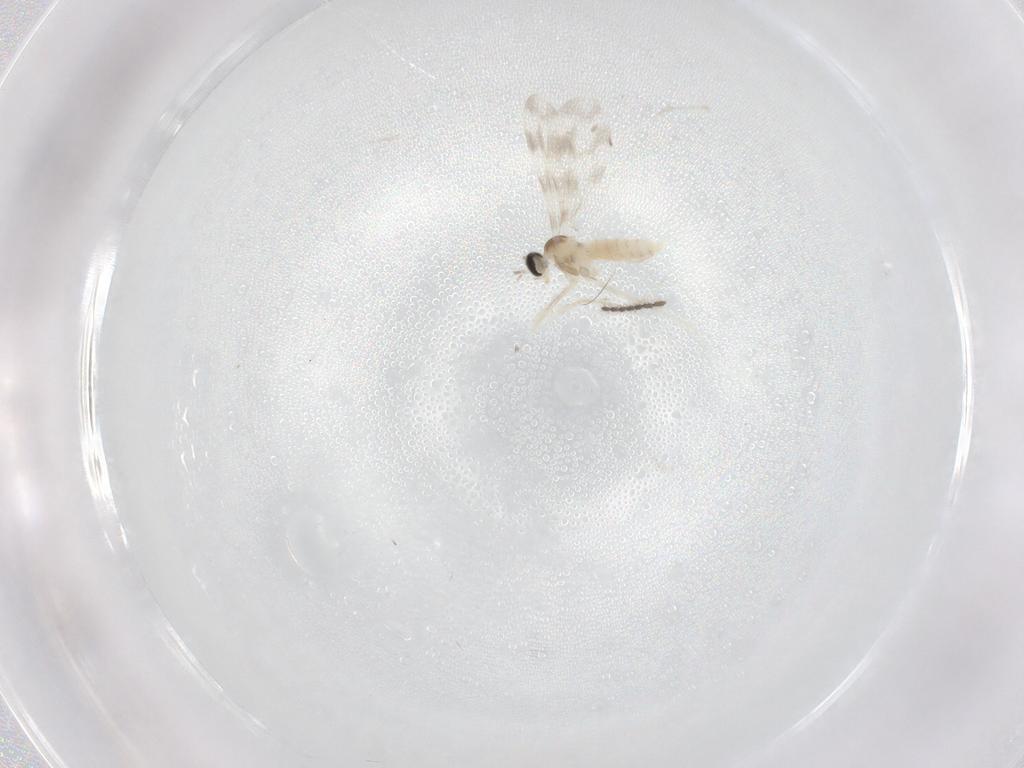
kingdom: Animalia
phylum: Arthropoda
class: Insecta
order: Diptera
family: Cecidomyiidae
